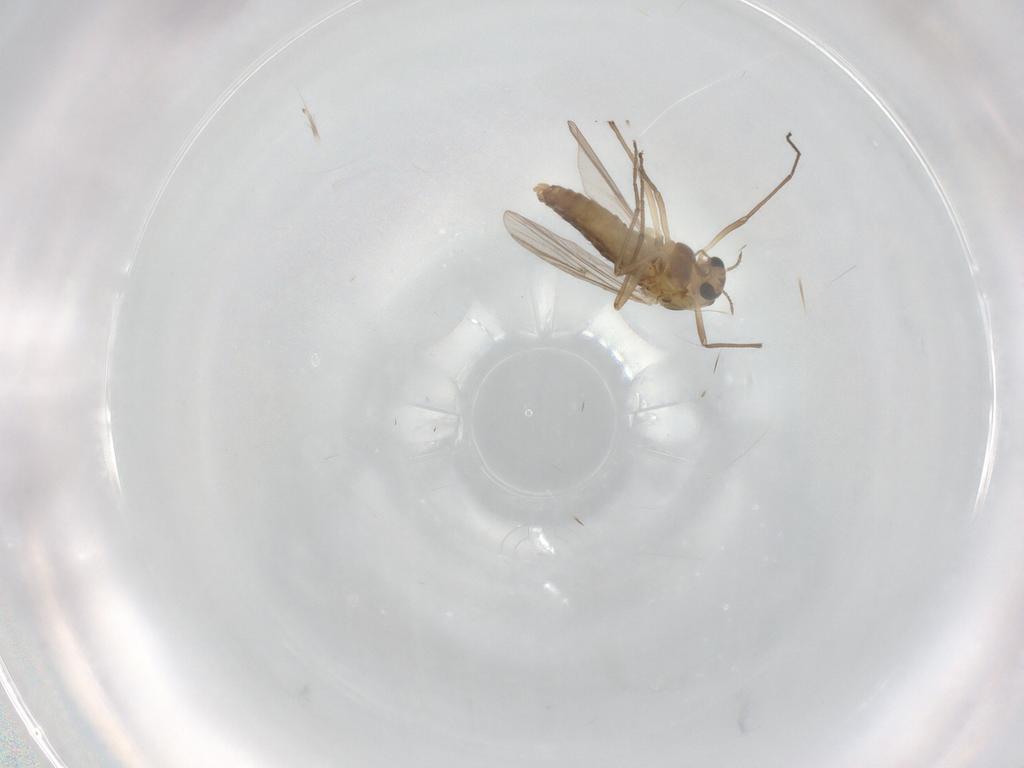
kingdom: Animalia
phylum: Arthropoda
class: Insecta
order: Diptera
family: Chironomidae
